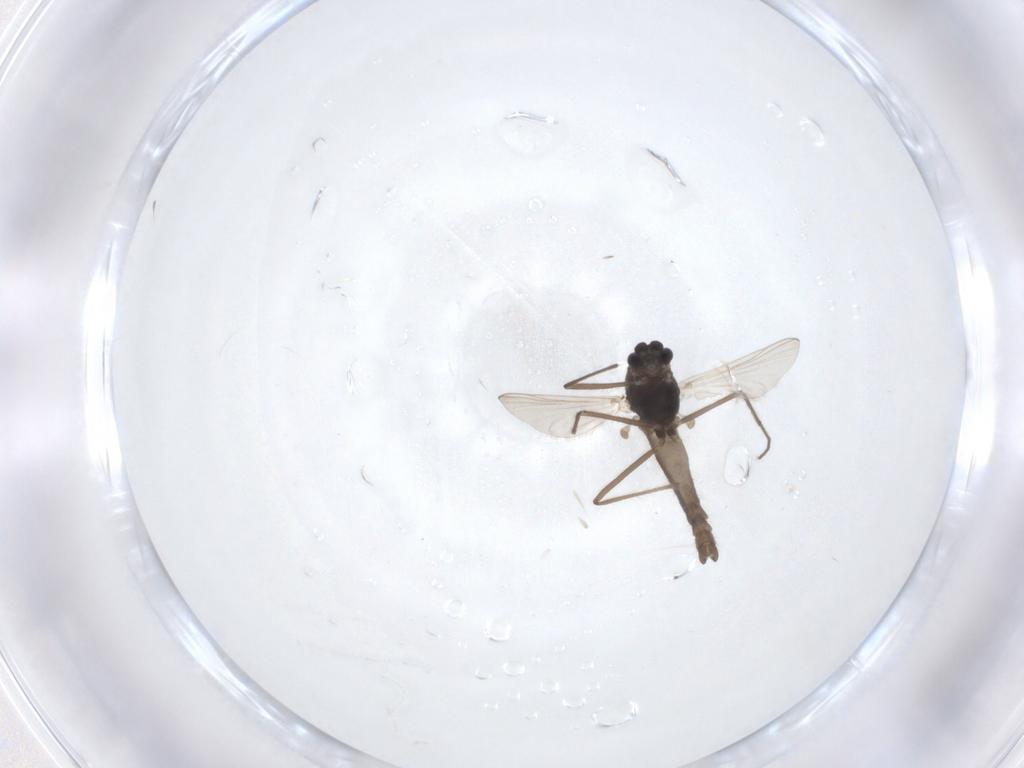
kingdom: Animalia
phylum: Arthropoda
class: Insecta
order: Diptera
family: Chironomidae
